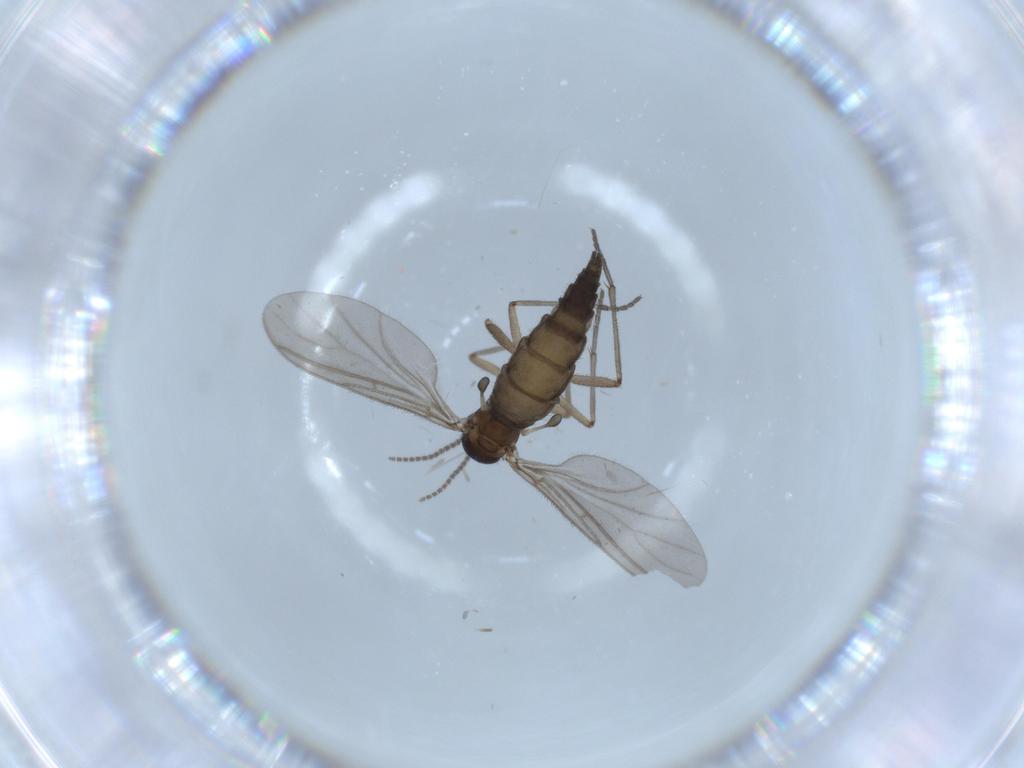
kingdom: Animalia
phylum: Arthropoda
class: Insecta
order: Diptera
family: Sciaridae
